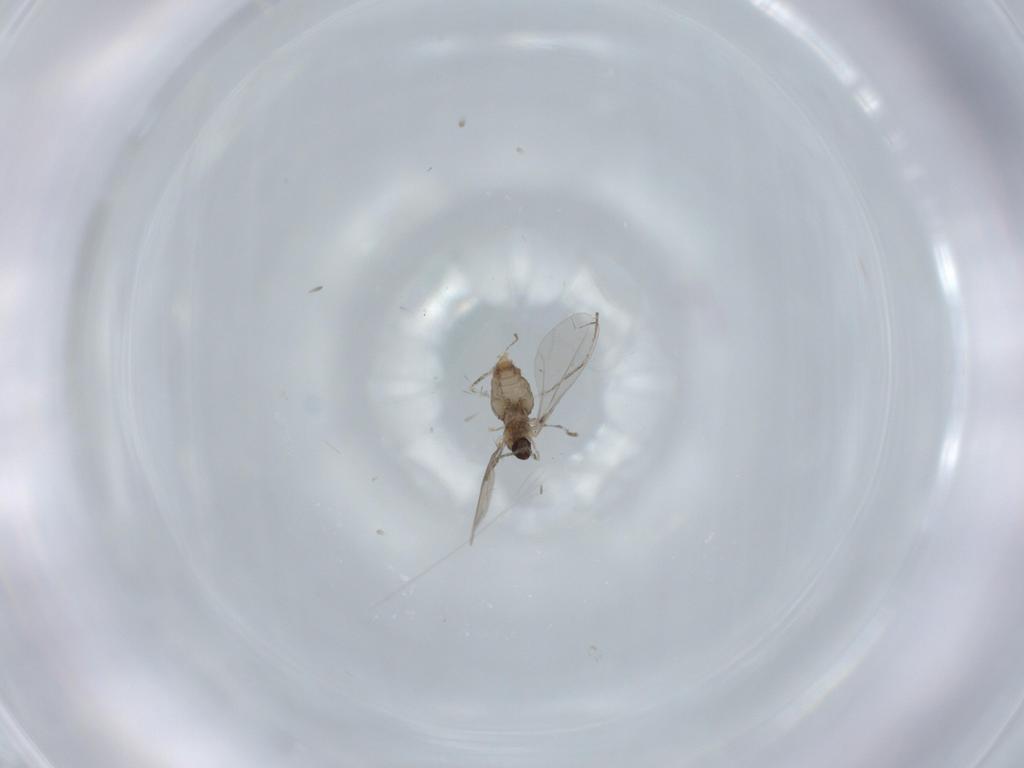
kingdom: Animalia
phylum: Arthropoda
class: Insecta
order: Diptera
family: Cecidomyiidae
